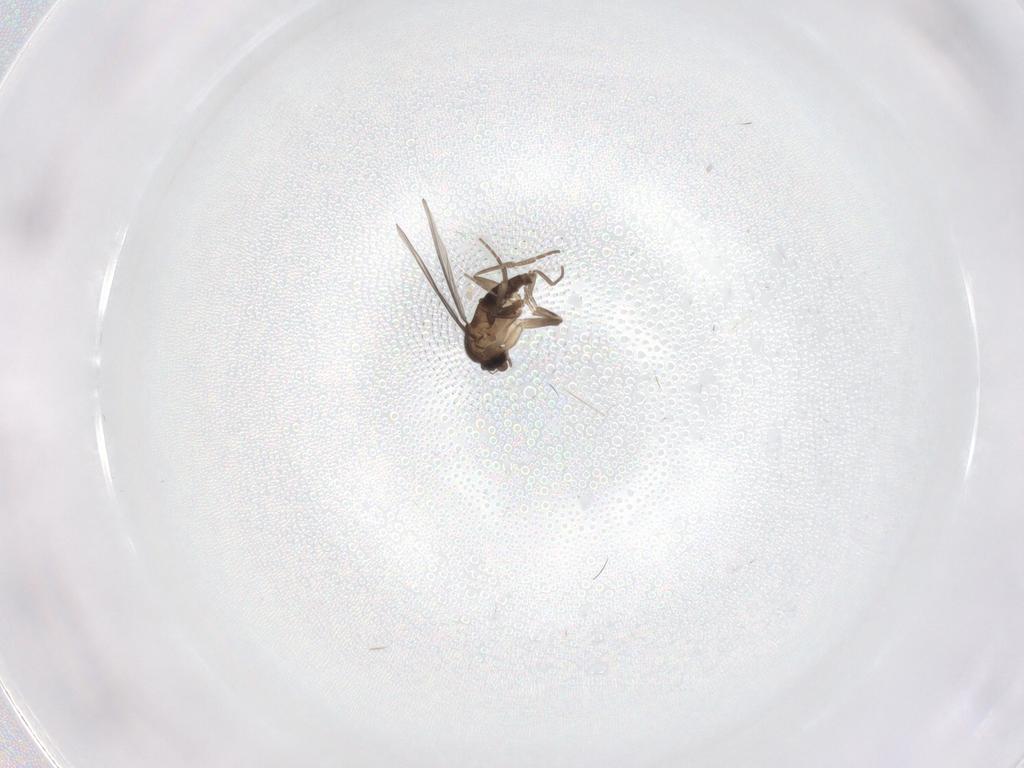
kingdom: Animalia
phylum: Arthropoda
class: Insecta
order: Diptera
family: Phoridae
